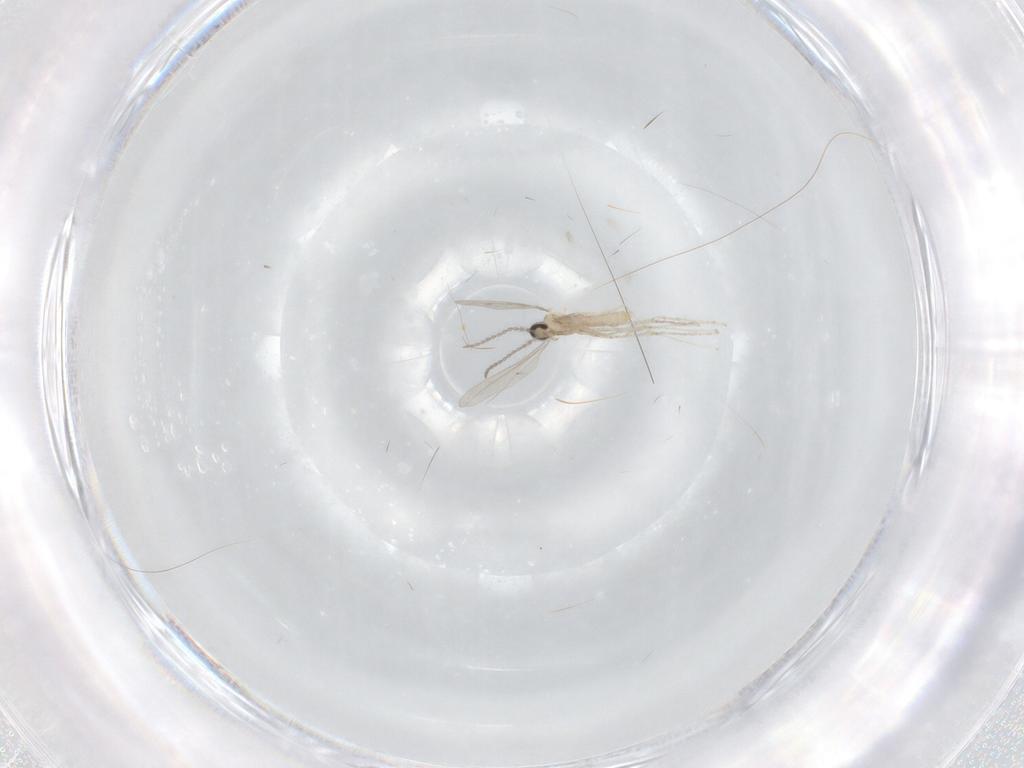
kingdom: Animalia
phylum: Arthropoda
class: Insecta
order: Diptera
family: Cecidomyiidae
